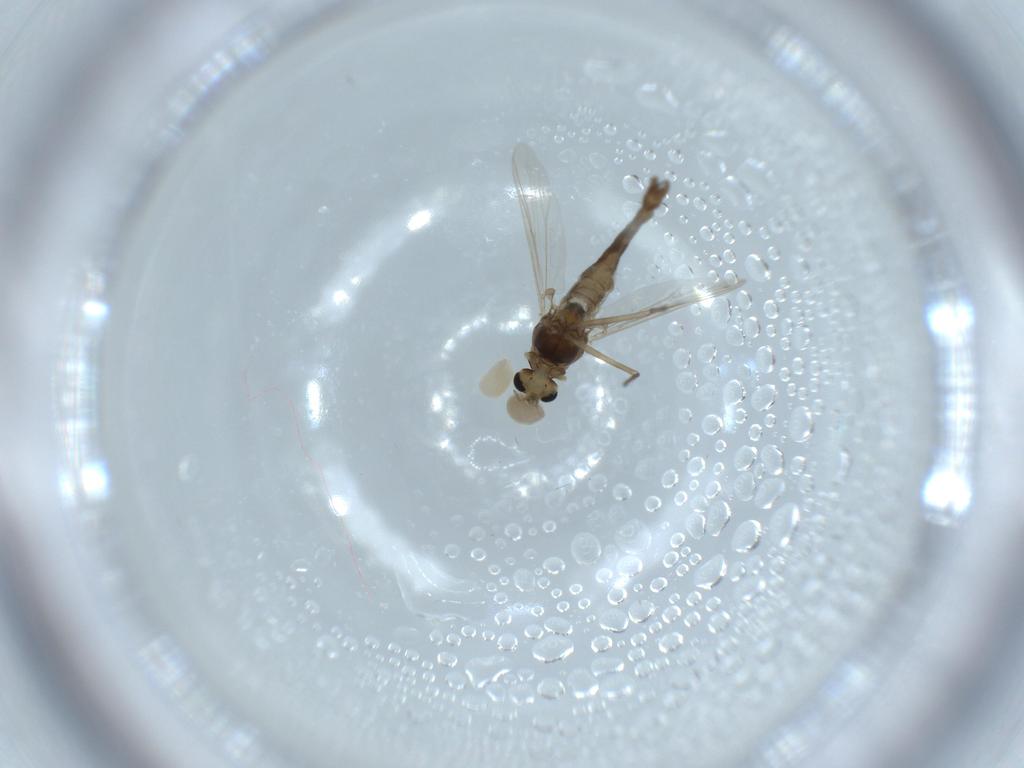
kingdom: Animalia
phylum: Arthropoda
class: Insecta
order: Diptera
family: Chironomidae
